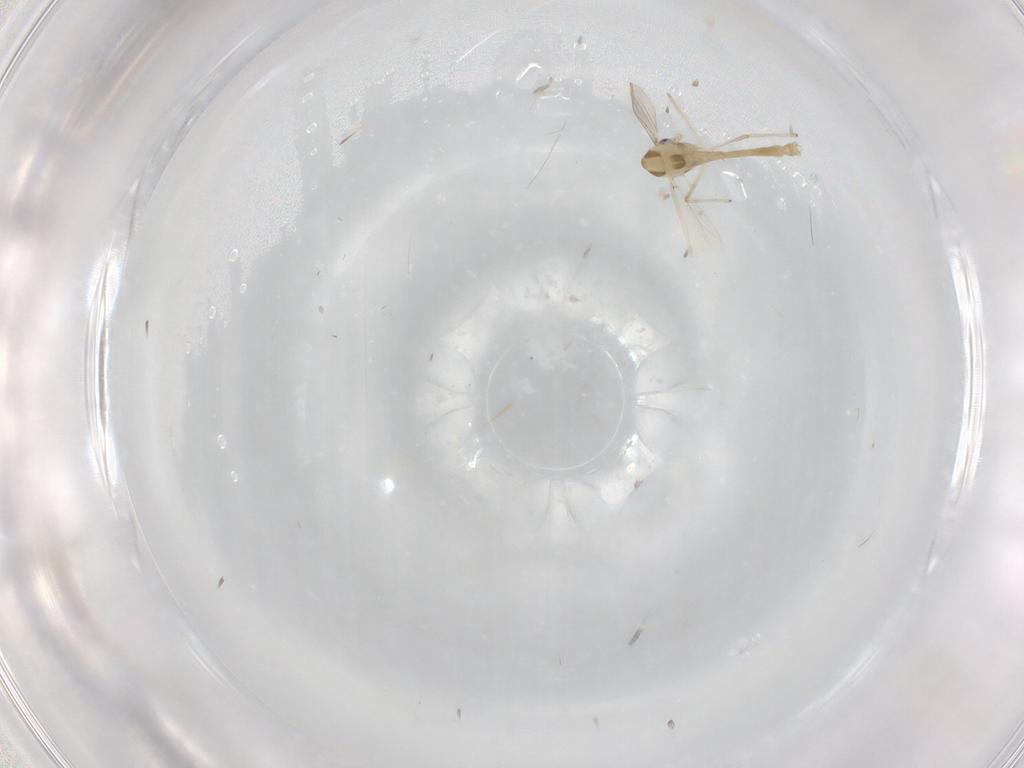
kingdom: Animalia
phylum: Arthropoda
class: Insecta
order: Diptera
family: Chironomidae
